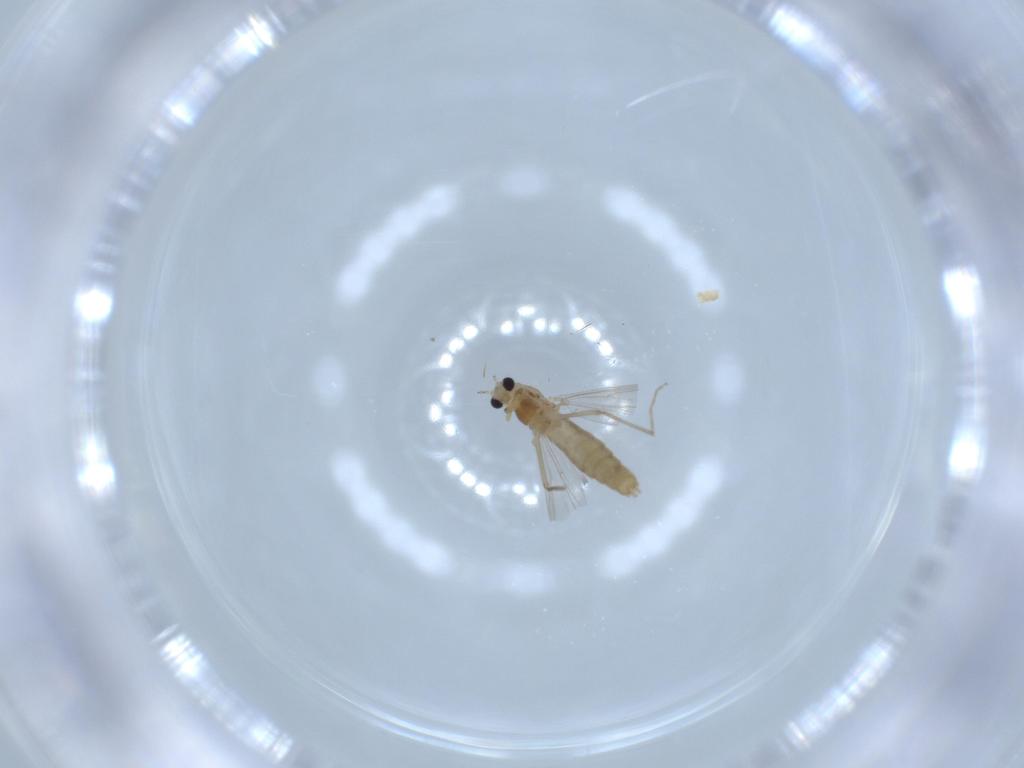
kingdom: Animalia
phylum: Arthropoda
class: Insecta
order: Diptera
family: Chironomidae
